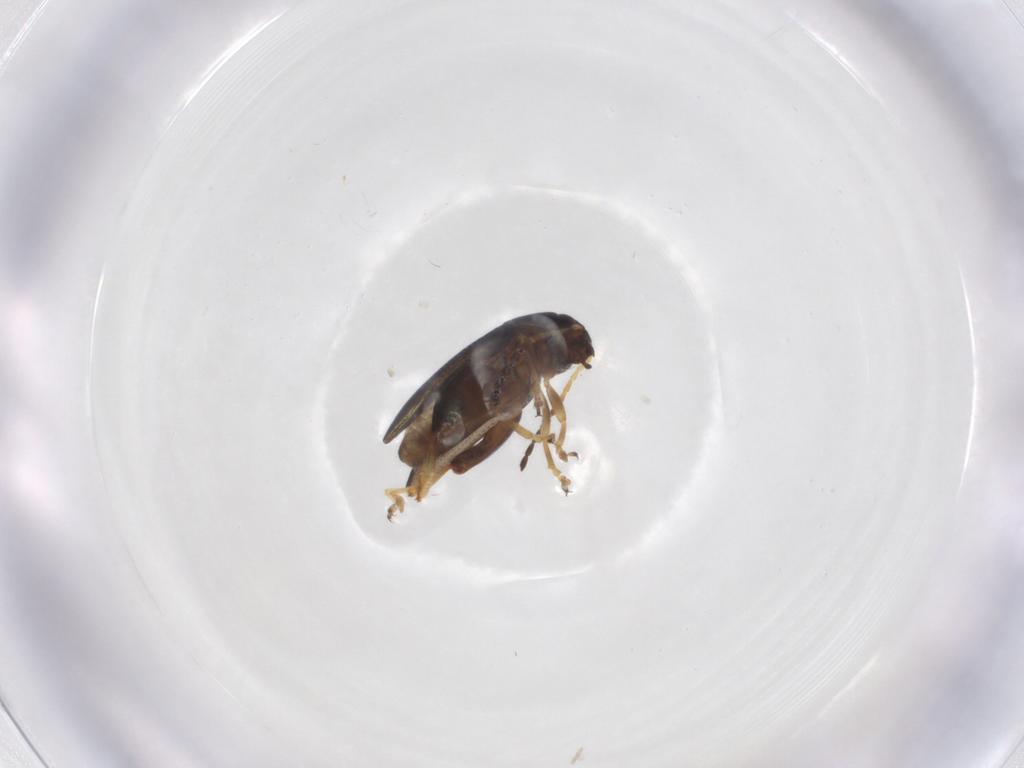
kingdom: Animalia
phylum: Arthropoda
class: Insecta
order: Coleoptera
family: Chrysomelidae
